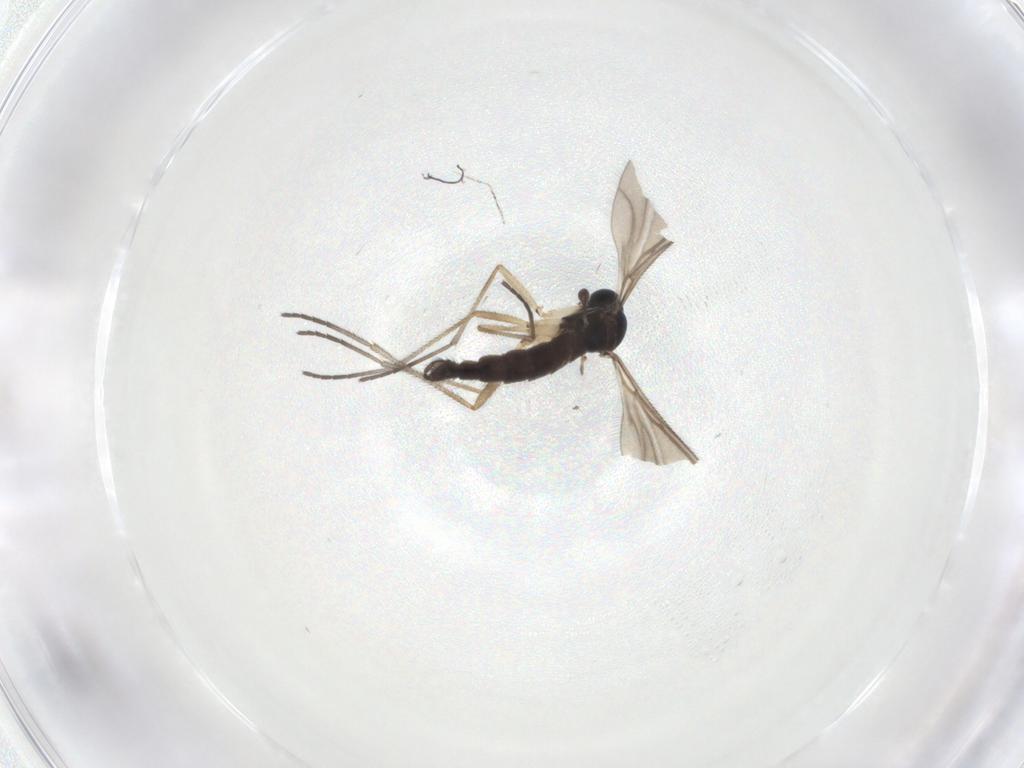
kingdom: Animalia
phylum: Arthropoda
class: Insecta
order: Diptera
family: Sciaridae
